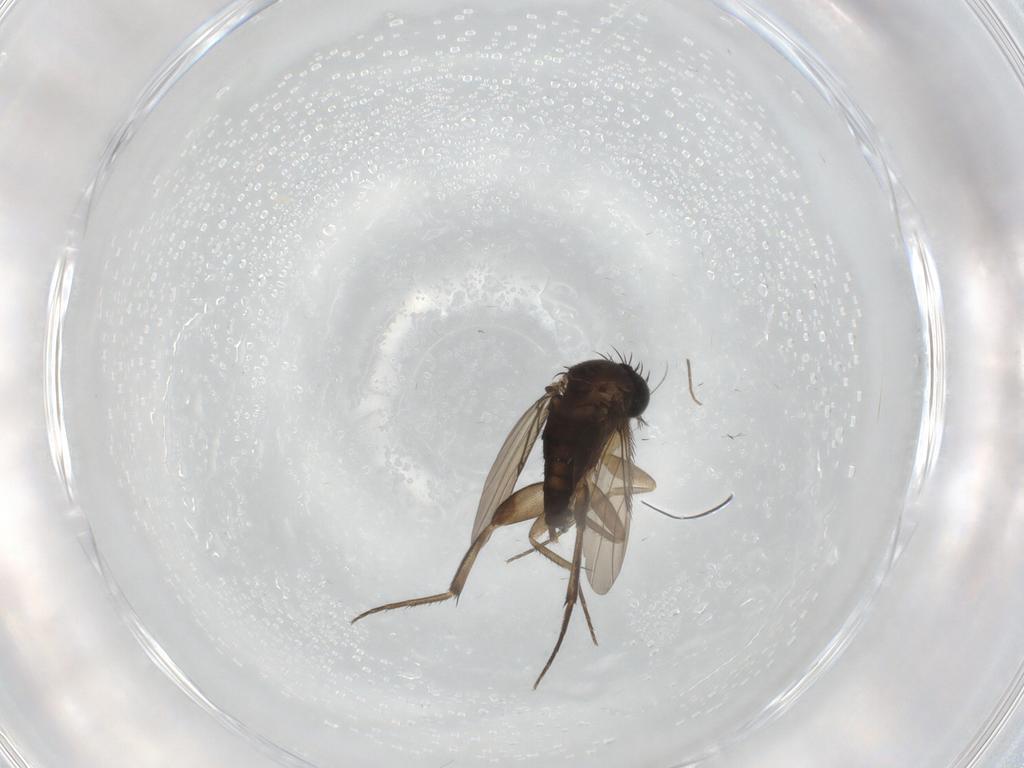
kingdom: Animalia
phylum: Arthropoda
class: Insecta
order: Diptera
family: Phoridae
